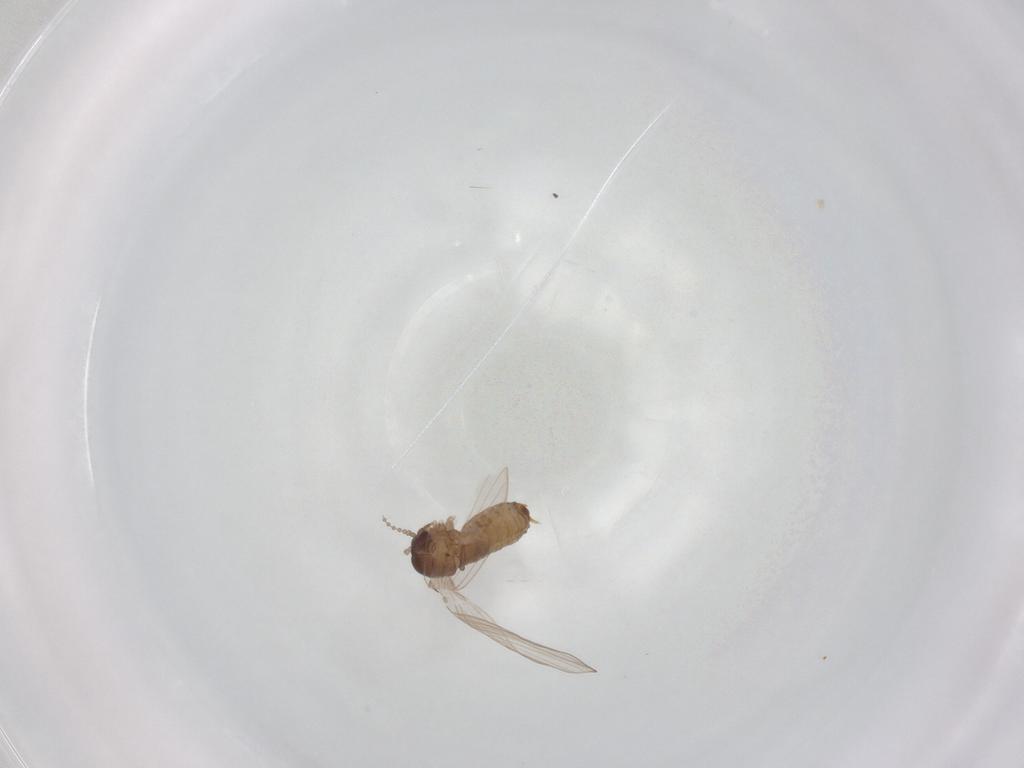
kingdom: Animalia
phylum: Arthropoda
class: Insecta
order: Diptera
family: Psychodidae
